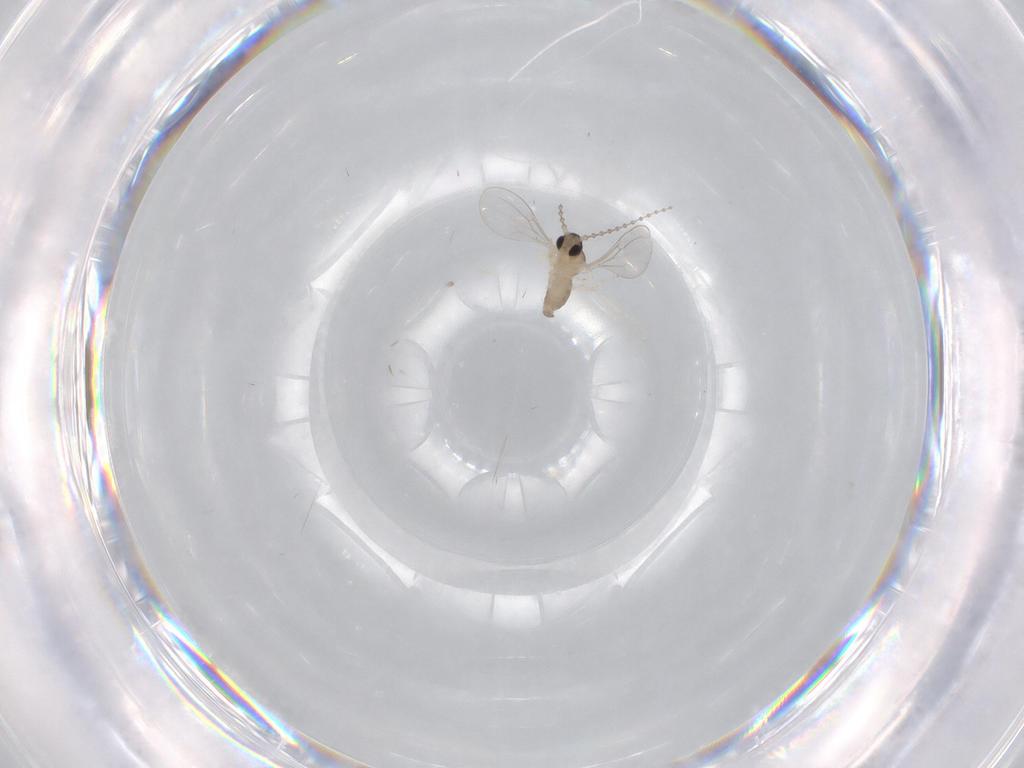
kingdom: Animalia
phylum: Arthropoda
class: Insecta
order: Diptera
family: Cecidomyiidae
